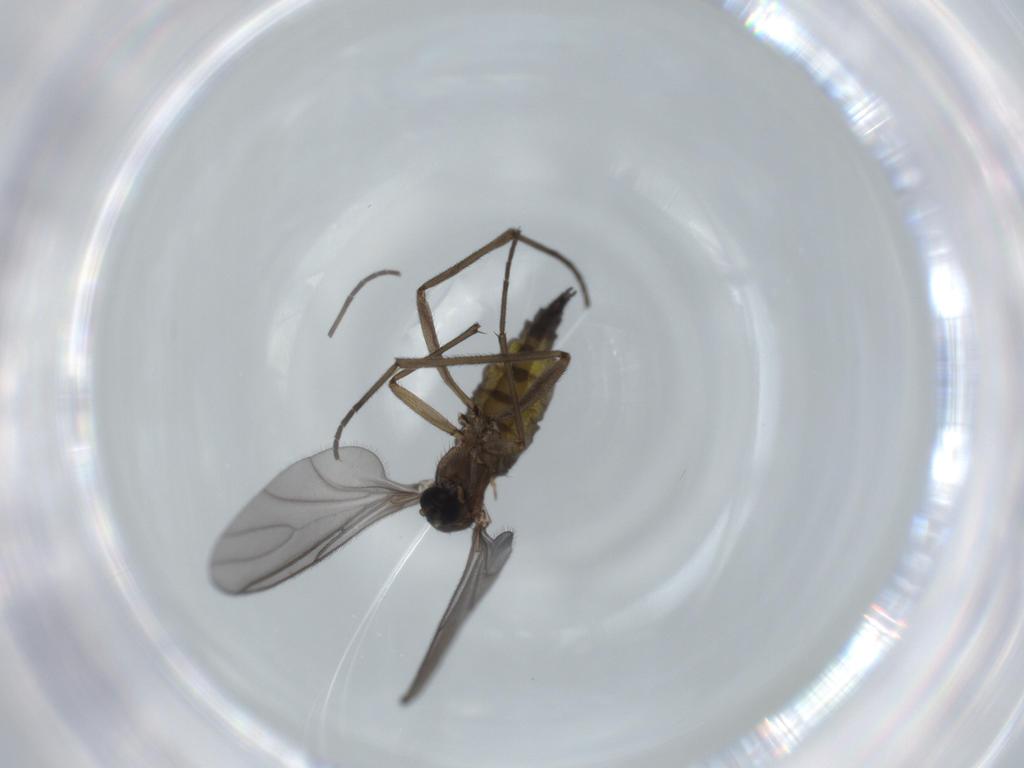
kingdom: Animalia
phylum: Arthropoda
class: Insecta
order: Diptera
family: Sciaridae
